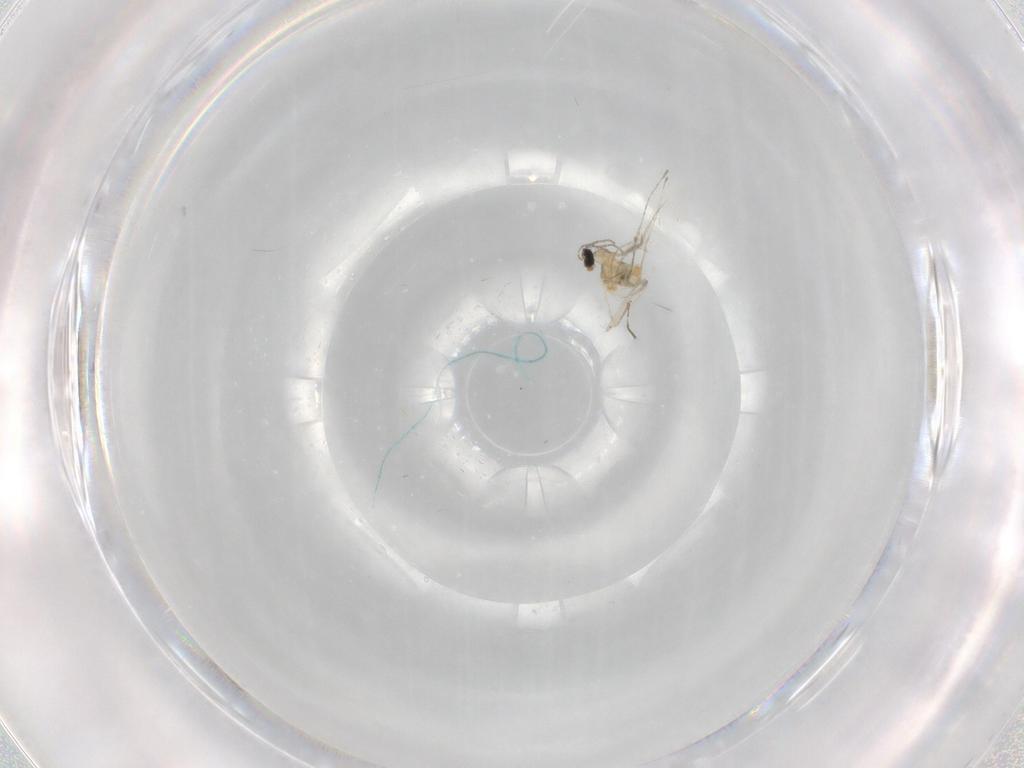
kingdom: Animalia
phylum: Arthropoda
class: Insecta
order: Diptera
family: Cecidomyiidae
